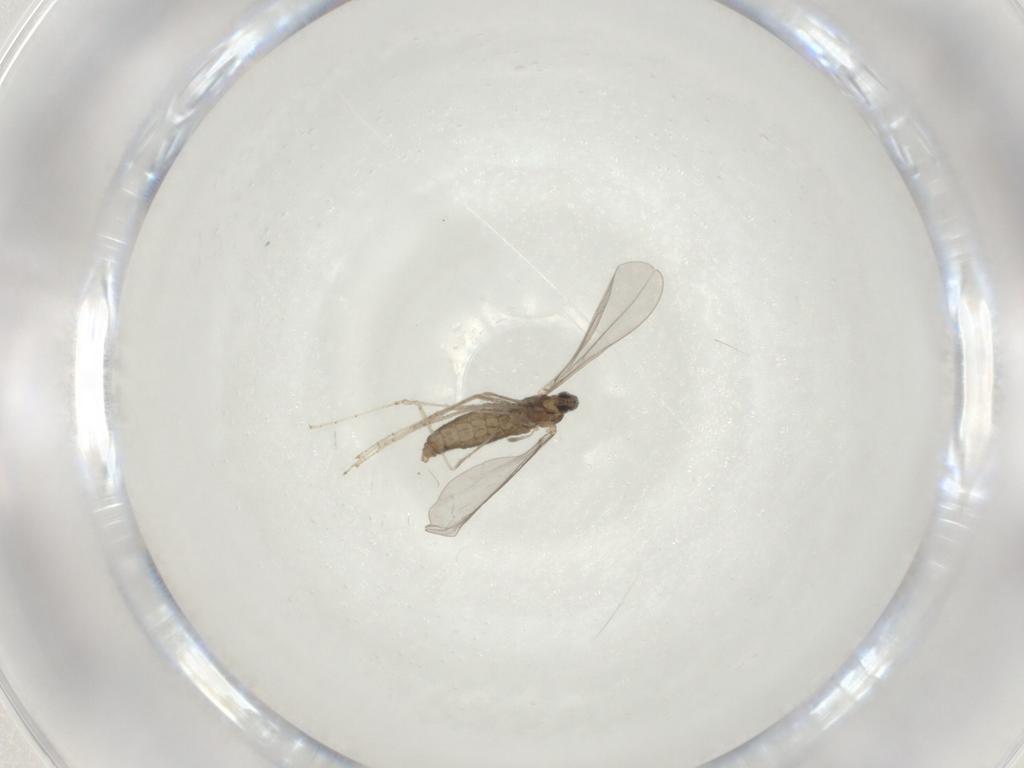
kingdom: Animalia
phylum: Arthropoda
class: Insecta
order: Diptera
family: Cecidomyiidae
